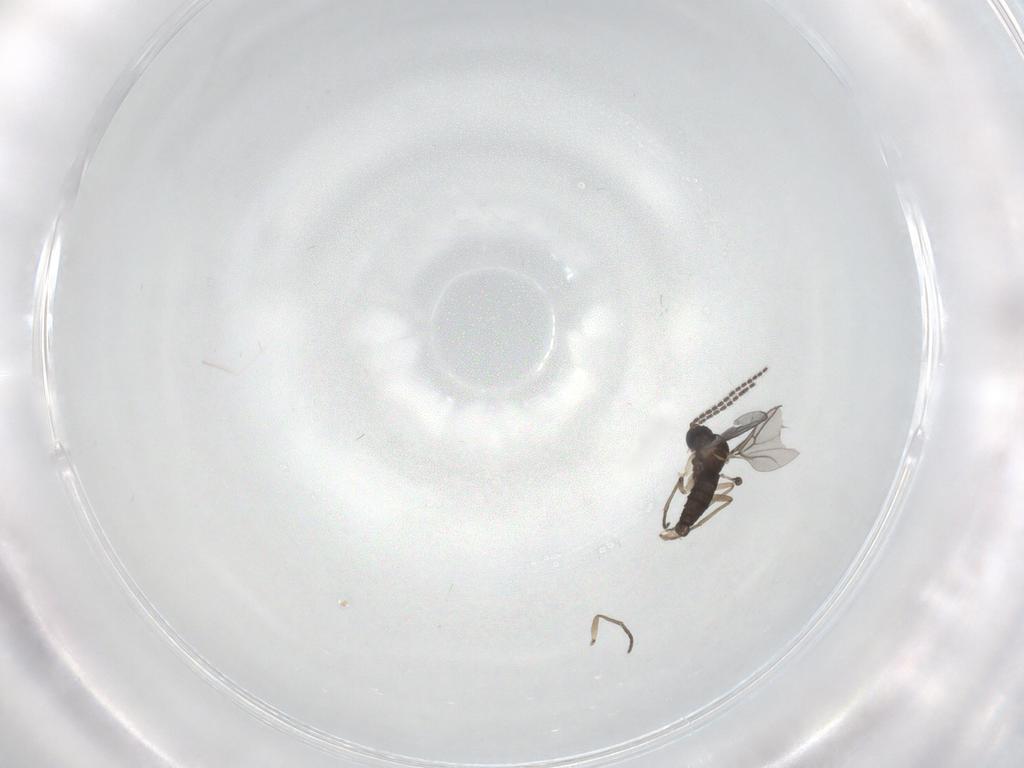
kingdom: Animalia
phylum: Arthropoda
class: Insecta
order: Diptera
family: Sciaridae
